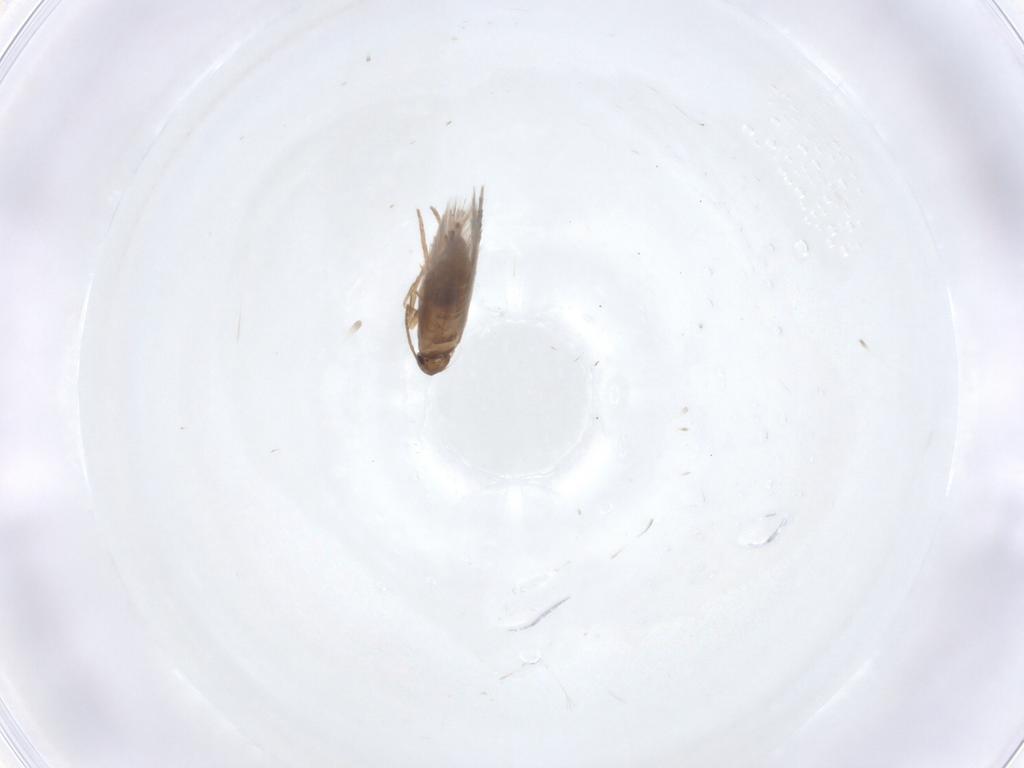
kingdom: Animalia
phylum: Arthropoda
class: Insecta
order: Lepidoptera
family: Heliozelidae
